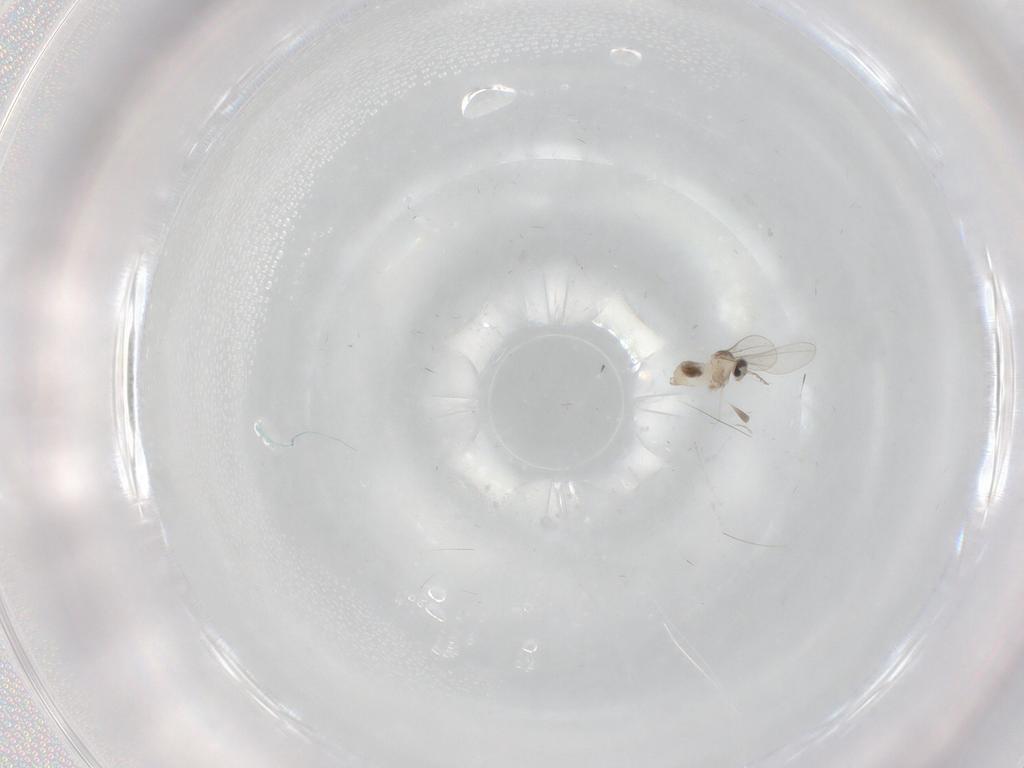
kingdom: Animalia
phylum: Arthropoda
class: Insecta
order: Diptera
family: Cecidomyiidae
